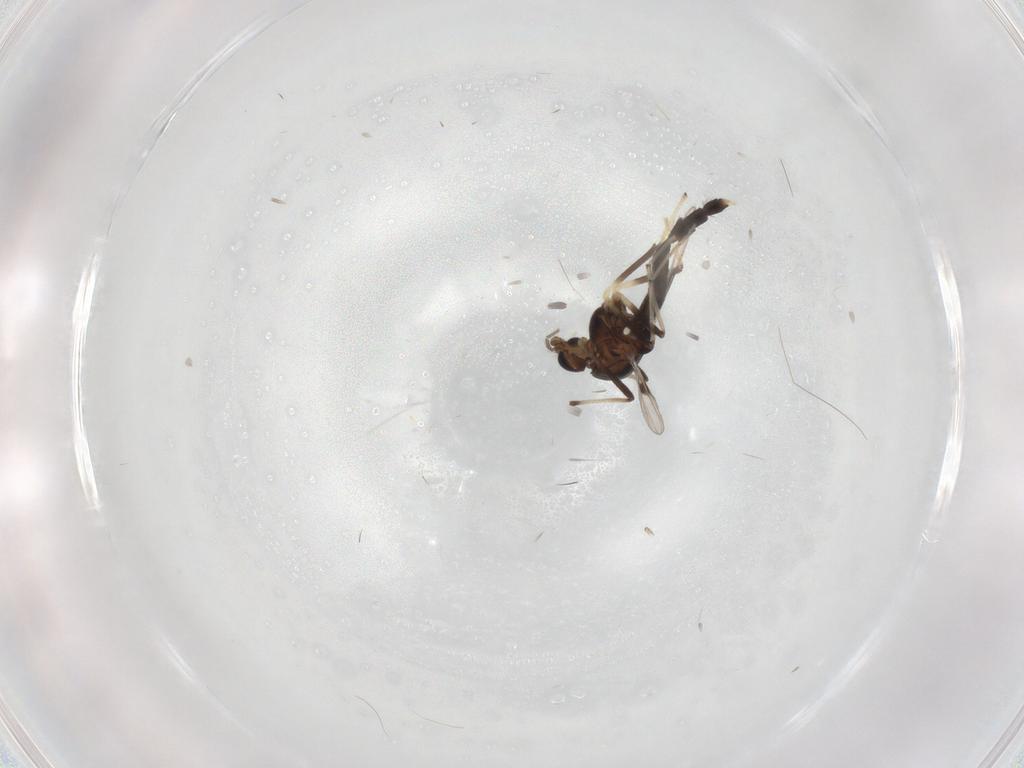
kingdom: Animalia
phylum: Arthropoda
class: Insecta
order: Diptera
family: Chironomidae
